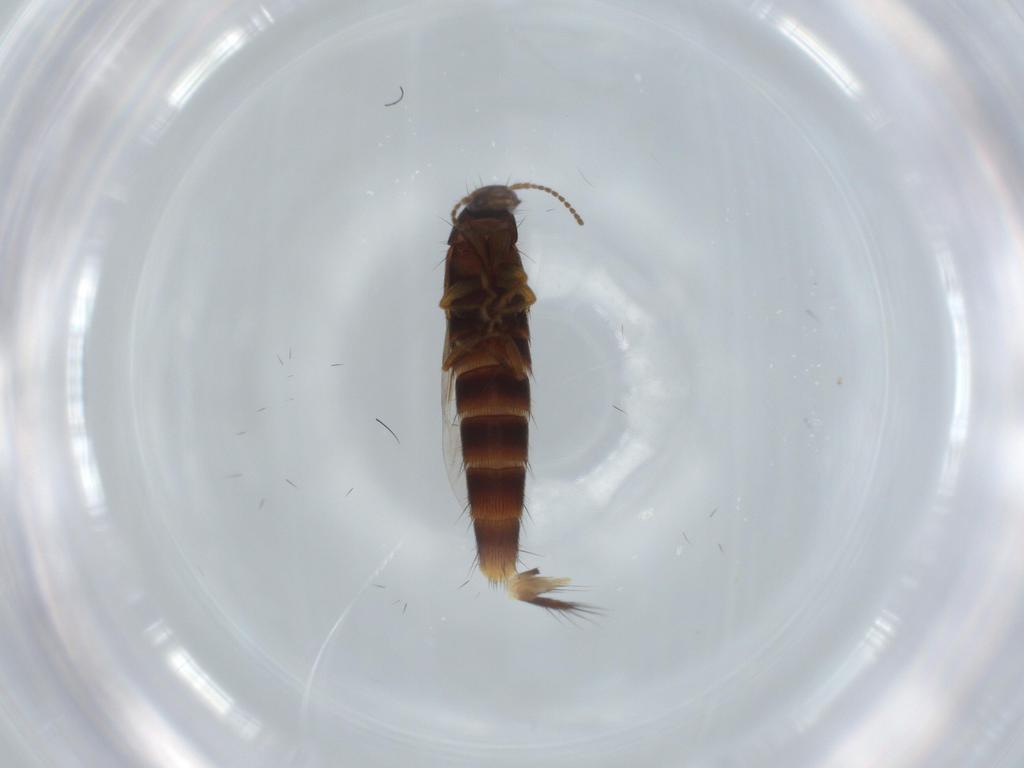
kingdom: Animalia
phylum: Arthropoda
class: Insecta
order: Coleoptera
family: Staphylinidae
